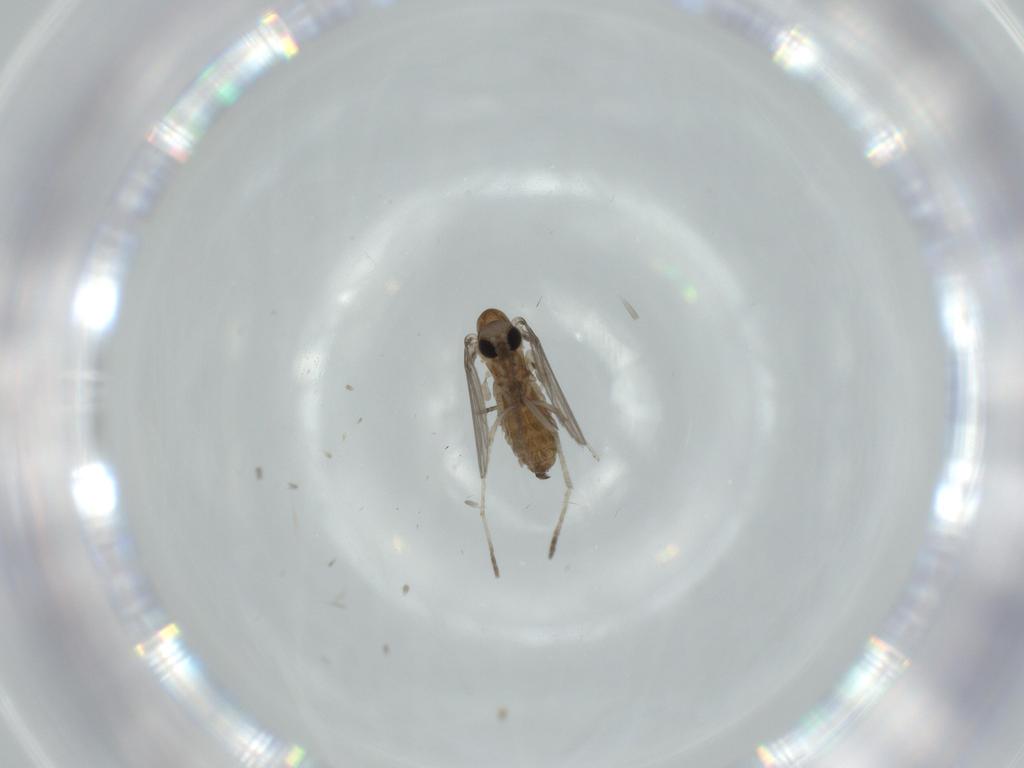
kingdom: Animalia
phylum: Arthropoda
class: Insecta
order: Diptera
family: Psychodidae
